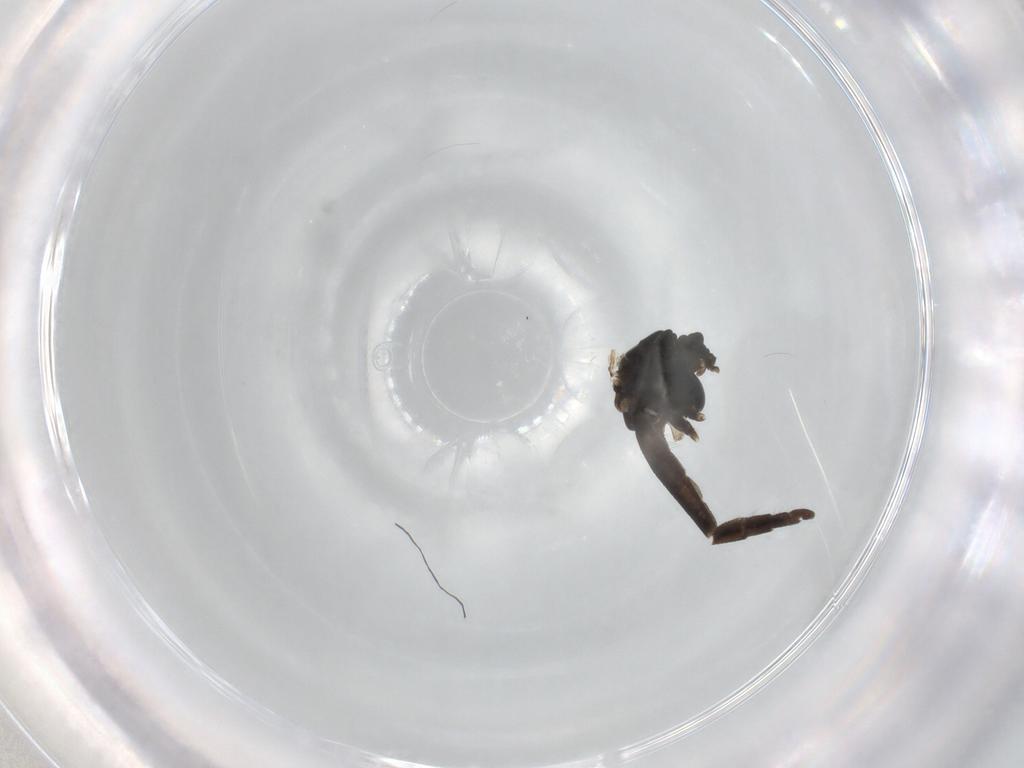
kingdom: Animalia
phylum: Arthropoda
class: Insecta
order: Diptera
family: Chironomidae
